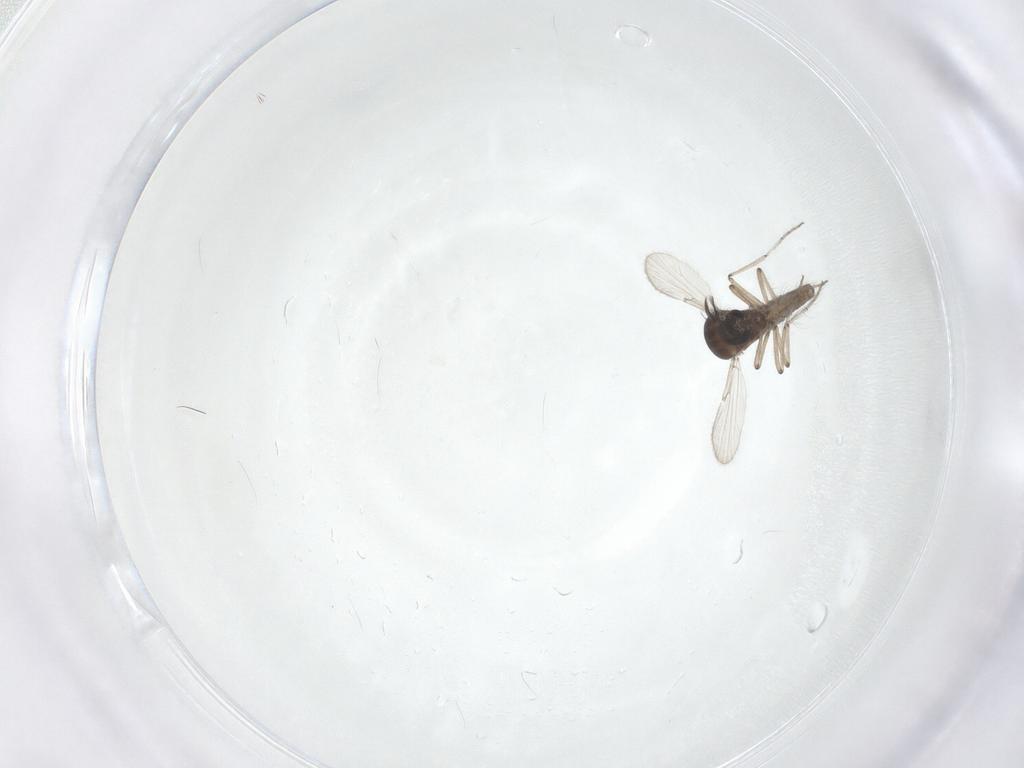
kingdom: Animalia
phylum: Arthropoda
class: Insecta
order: Diptera
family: Ceratopogonidae
